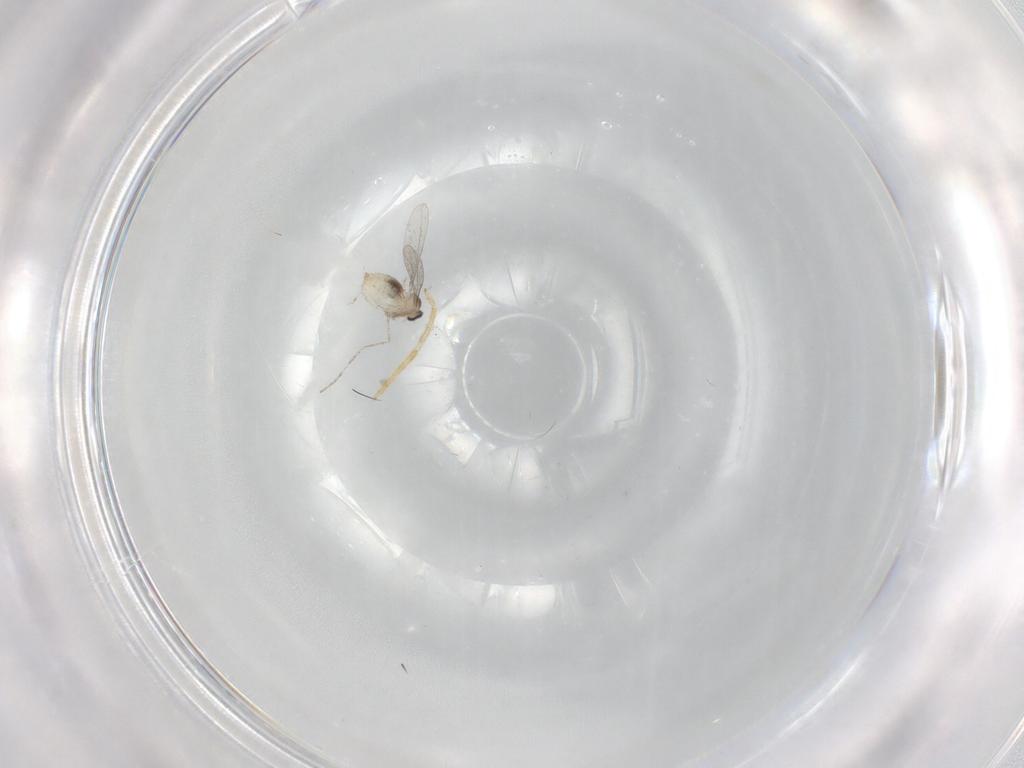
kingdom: Animalia
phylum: Arthropoda
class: Insecta
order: Diptera
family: Cecidomyiidae
